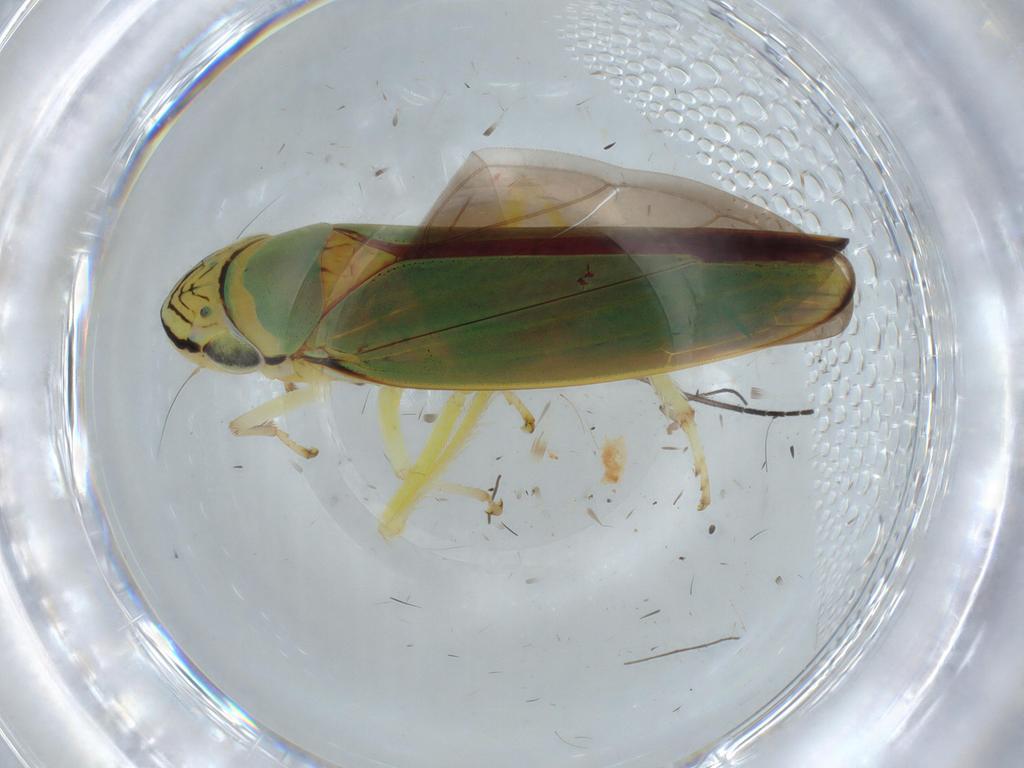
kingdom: Animalia
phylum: Arthropoda
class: Insecta
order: Hemiptera
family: Cicadellidae
